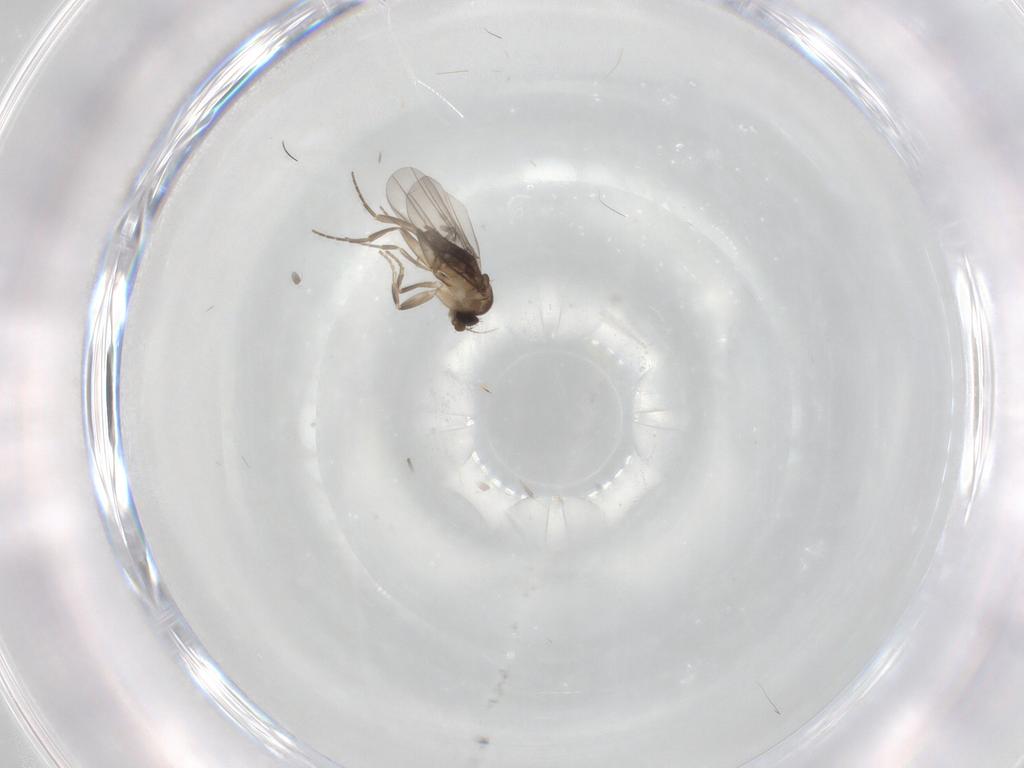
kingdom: Animalia
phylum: Arthropoda
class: Insecta
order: Diptera
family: Phoridae
